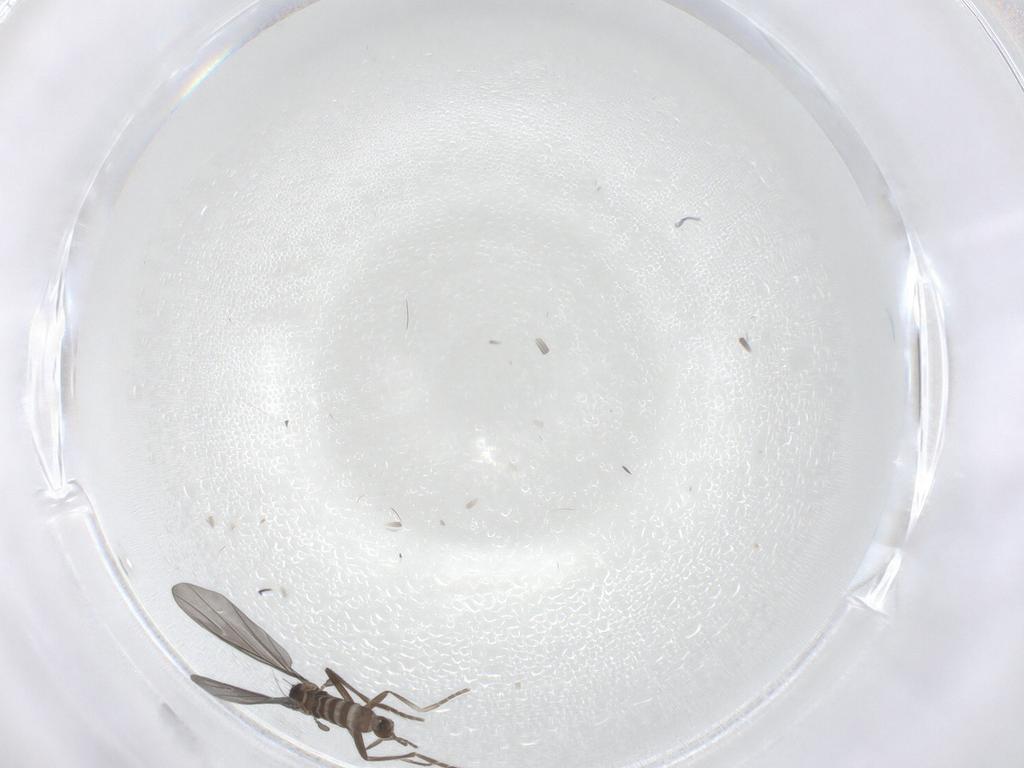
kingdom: Animalia
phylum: Arthropoda
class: Insecta
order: Diptera
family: Phoridae
